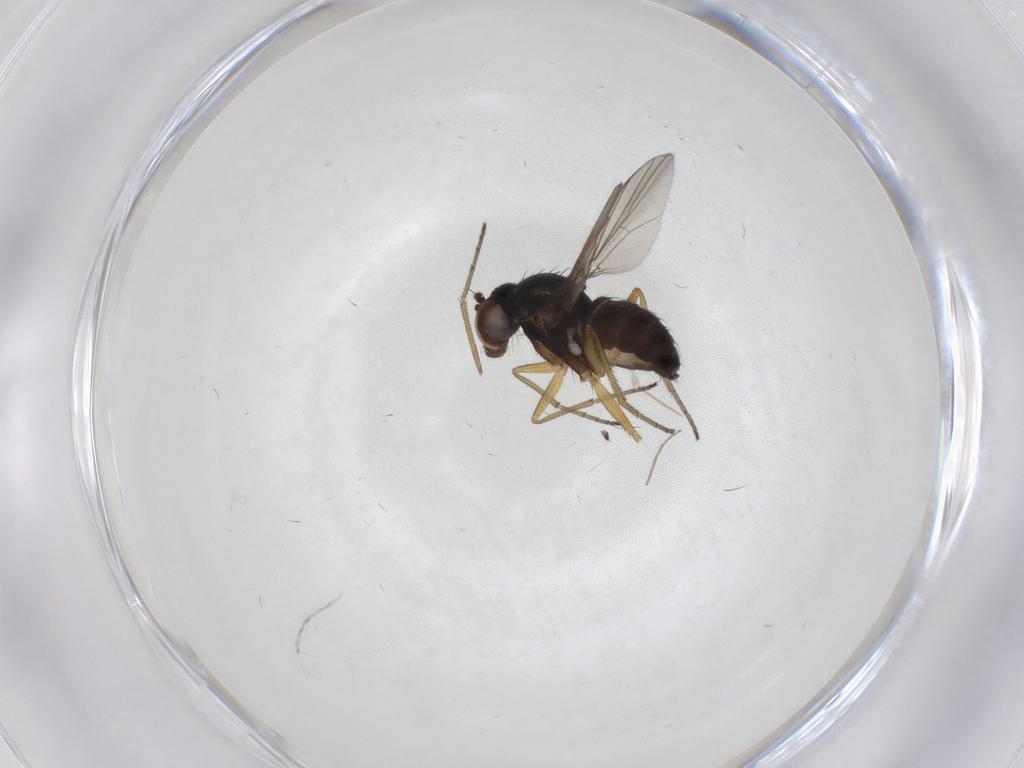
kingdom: Animalia
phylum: Arthropoda
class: Insecta
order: Diptera
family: Dolichopodidae
